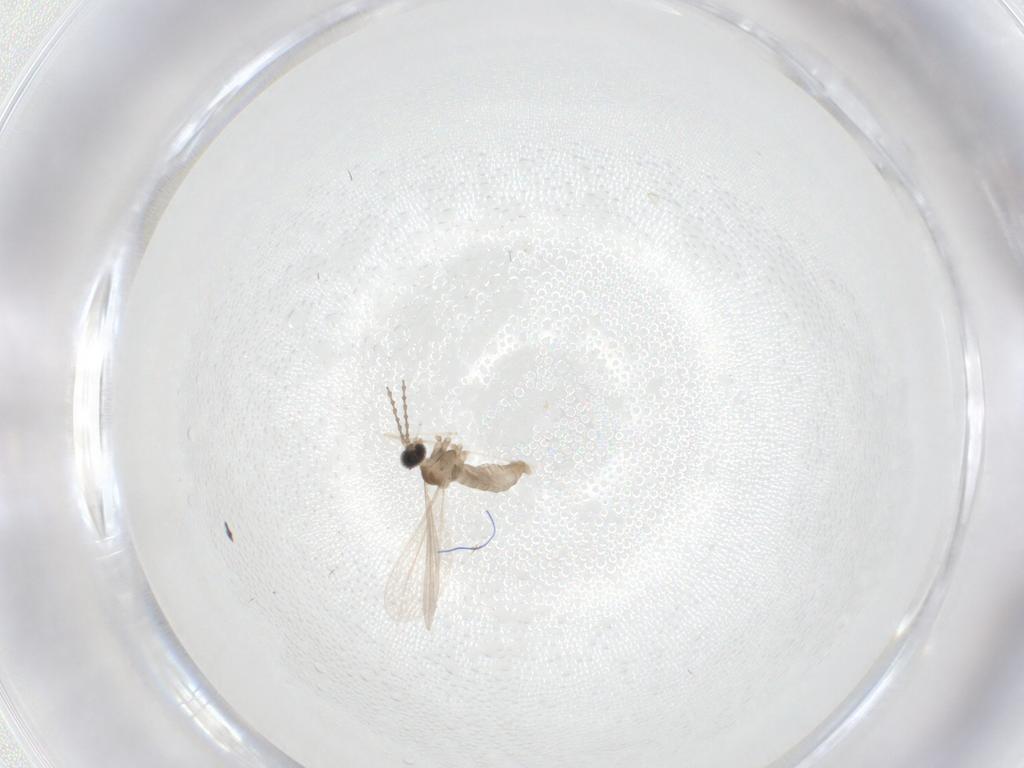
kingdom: Animalia
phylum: Arthropoda
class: Insecta
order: Diptera
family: Cecidomyiidae
